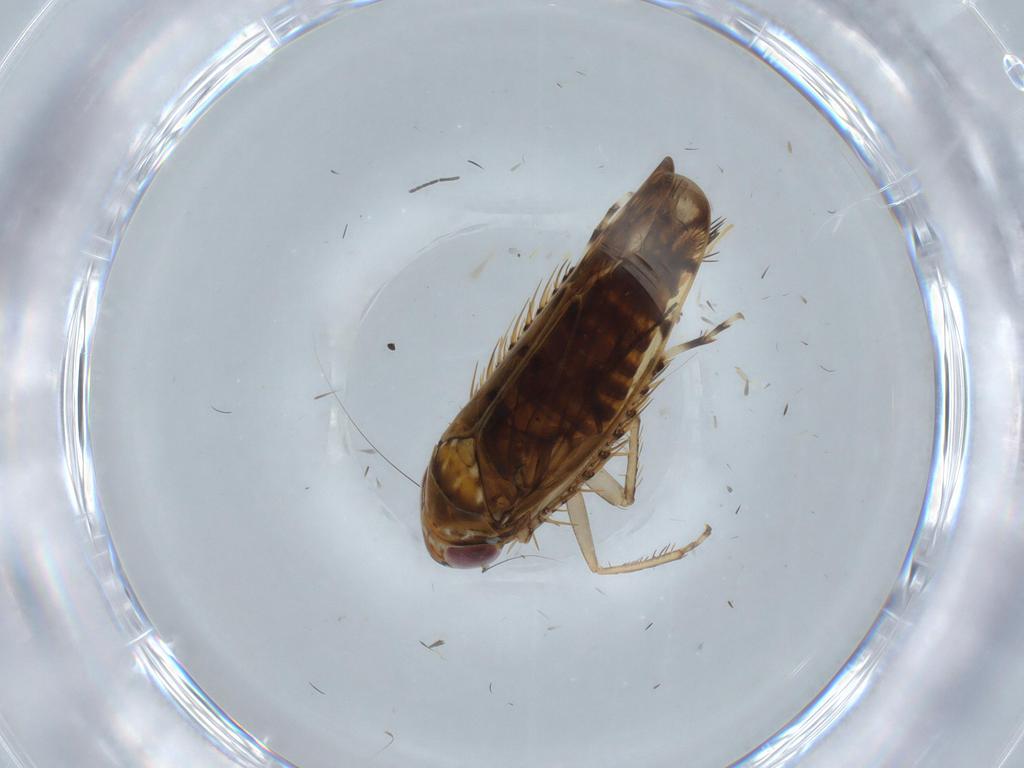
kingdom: Animalia
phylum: Arthropoda
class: Insecta
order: Hemiptera
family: Cicadellidae
